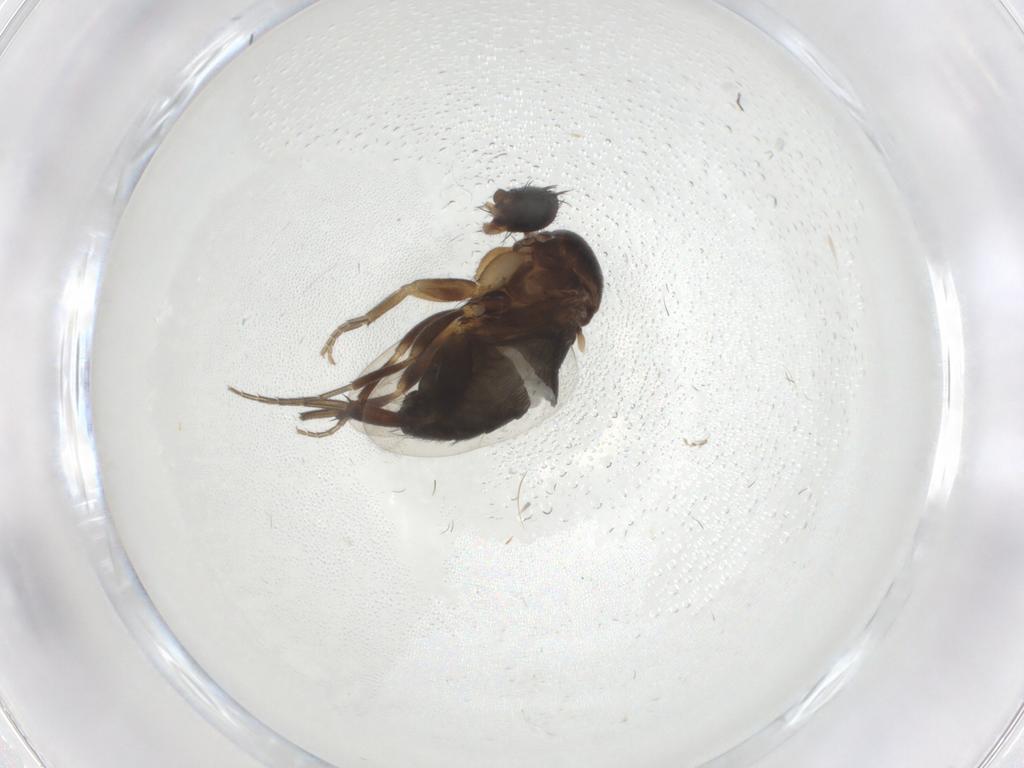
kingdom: Animalia
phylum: Arthropoda
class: Insecta
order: Diptera
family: Phoridae
